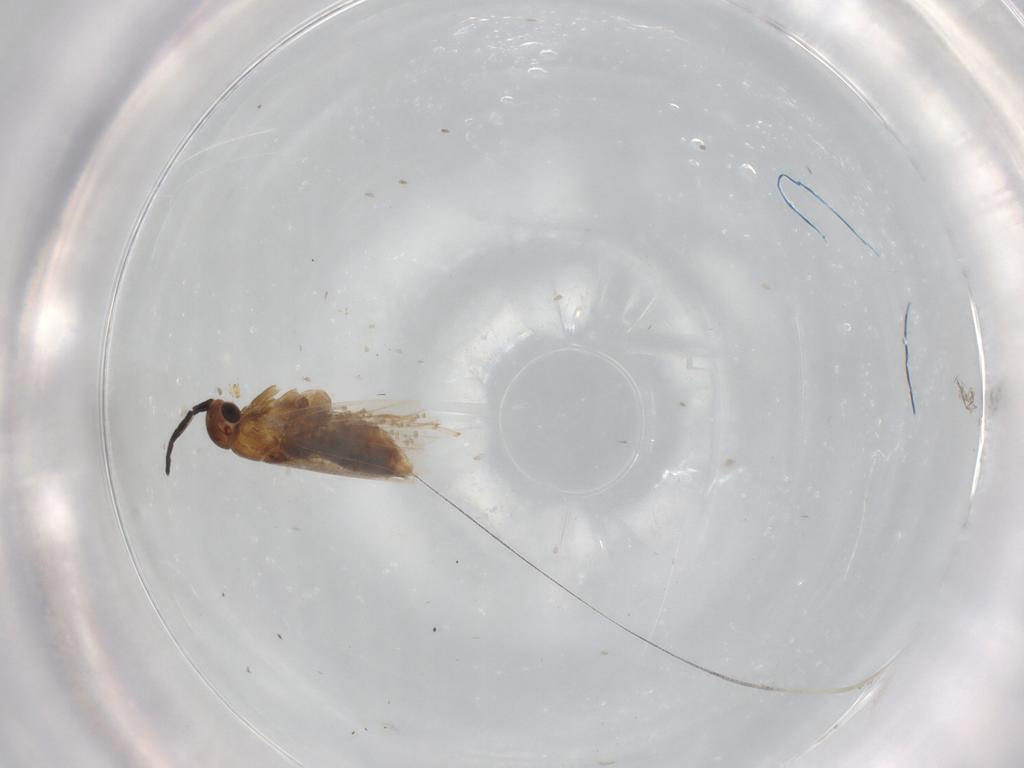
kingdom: Animalia
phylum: Arthropoda
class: Insecta
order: Lepidoptera
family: Glyphipterigidae
